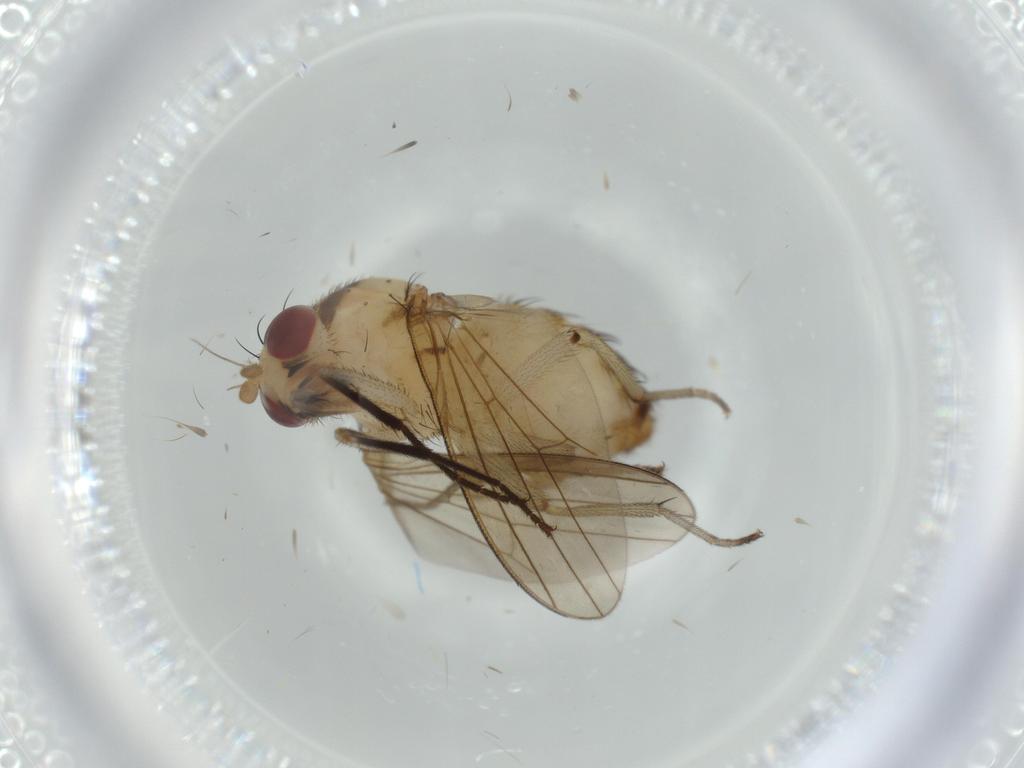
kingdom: Animalia
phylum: Arthropoda
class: Insecta
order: Diptera
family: Lauxaniidae
